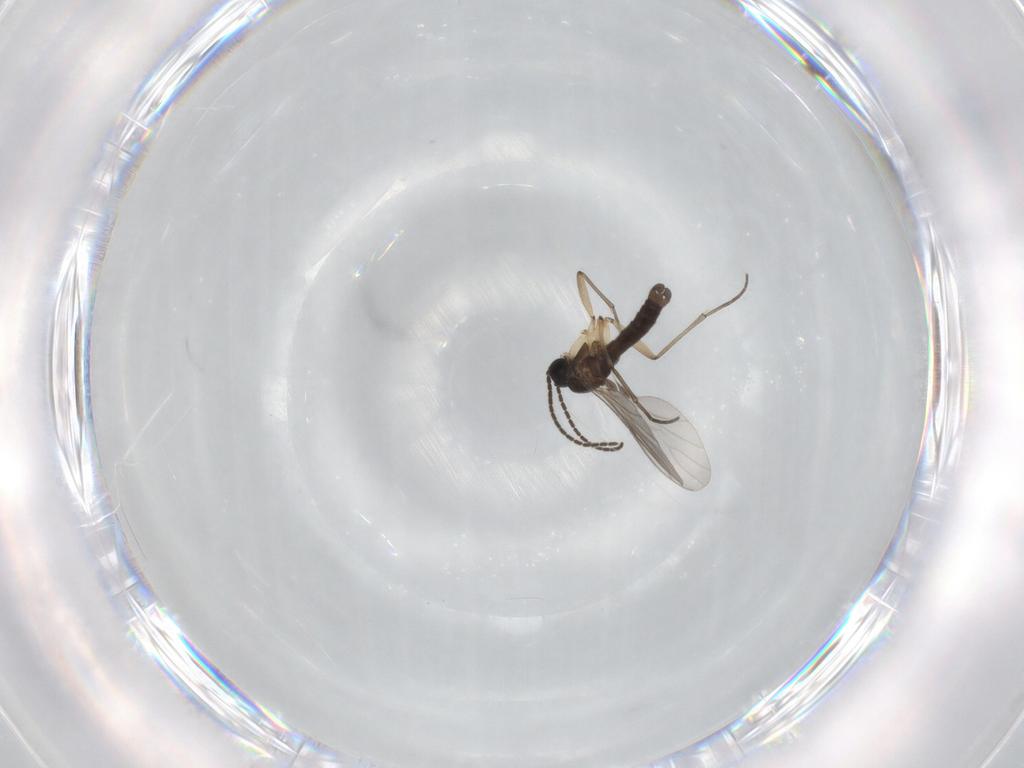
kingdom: Animalia
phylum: Arthropoda
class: Insecta
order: Diptera
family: Sciaridae
